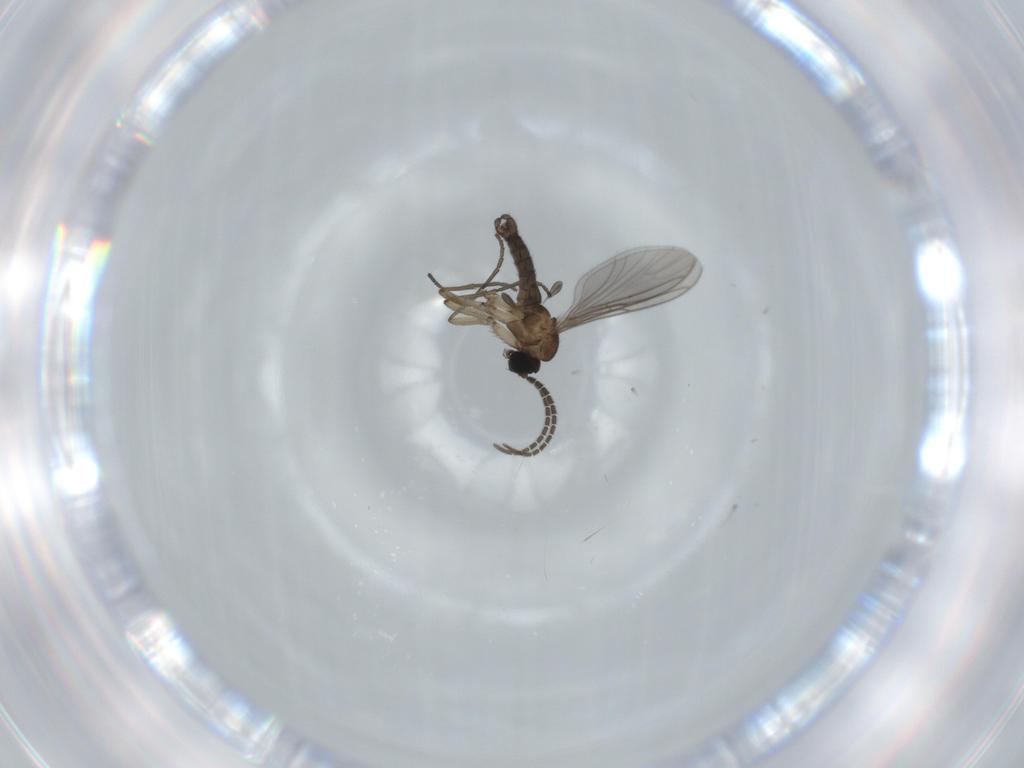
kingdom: Animalia
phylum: Arthropoda
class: Insecta
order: Diptera
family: Sciaridae
